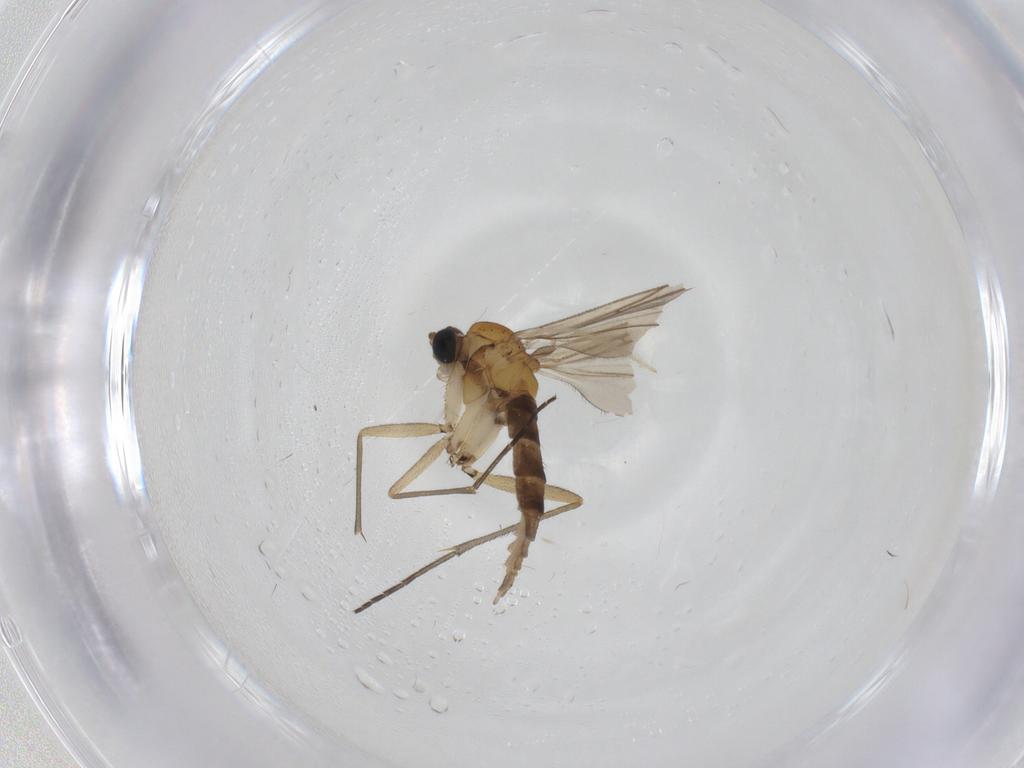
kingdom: Animalia
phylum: Arthropoda
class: Insecta
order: Diptera
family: Sciaridae
